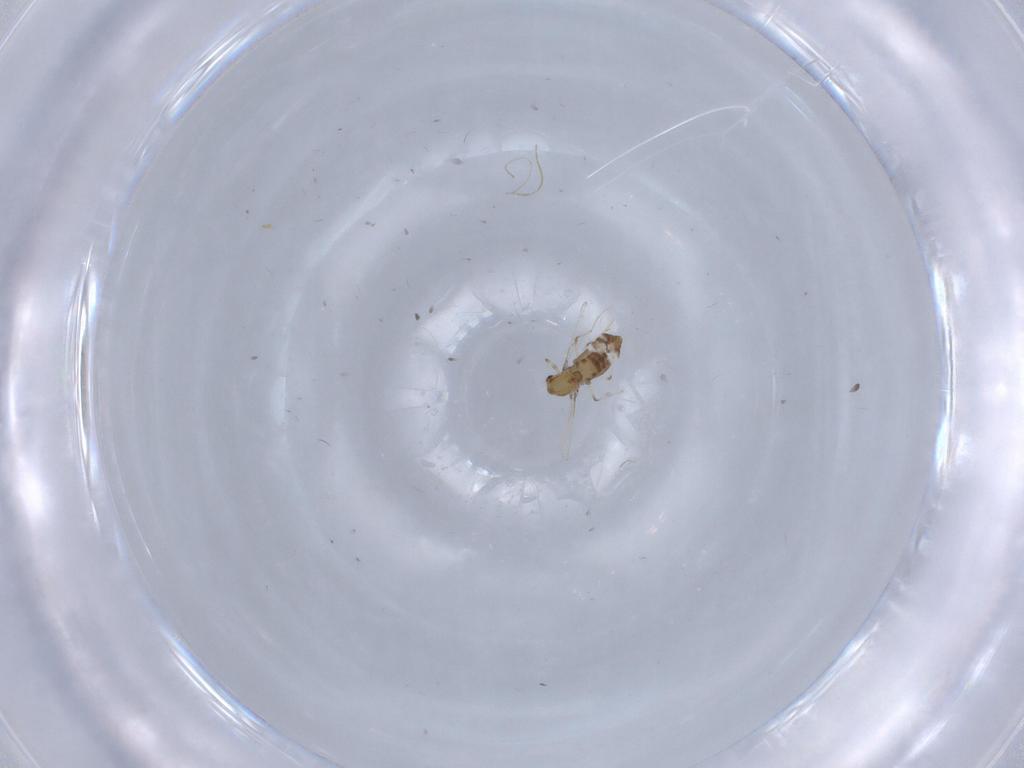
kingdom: Animalia
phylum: Arthropoda
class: Insecta
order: Diptera
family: Chironomidae
